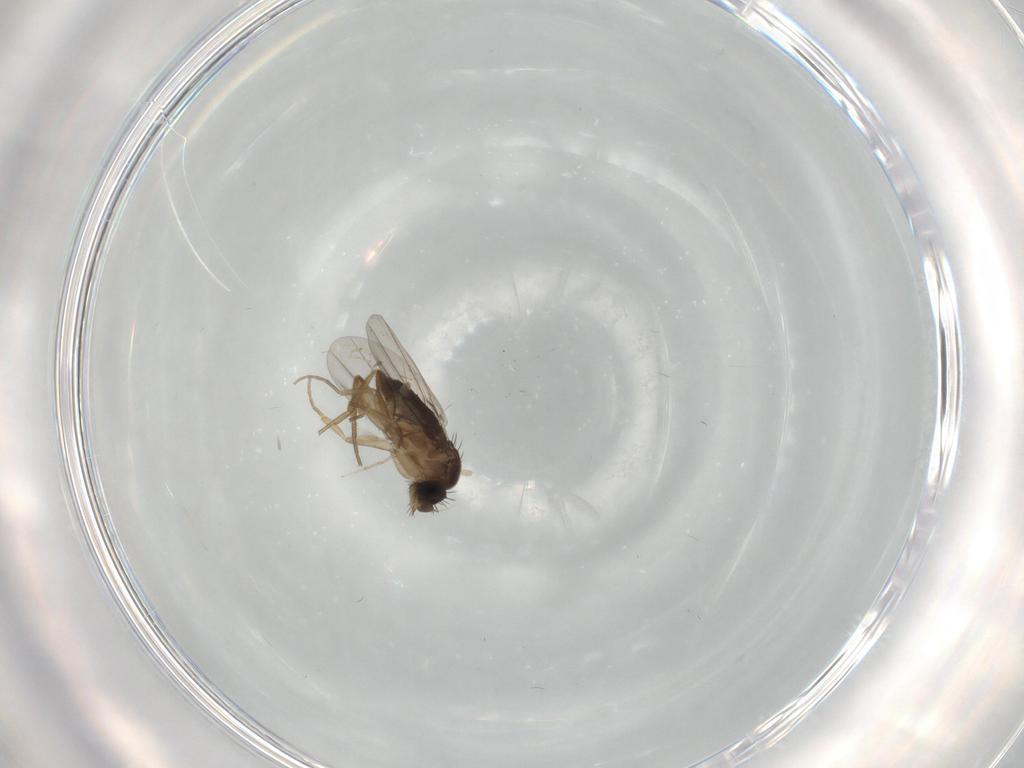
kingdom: Animalia
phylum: Arthropoda
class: Insecta
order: Diptera
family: Phoridae
